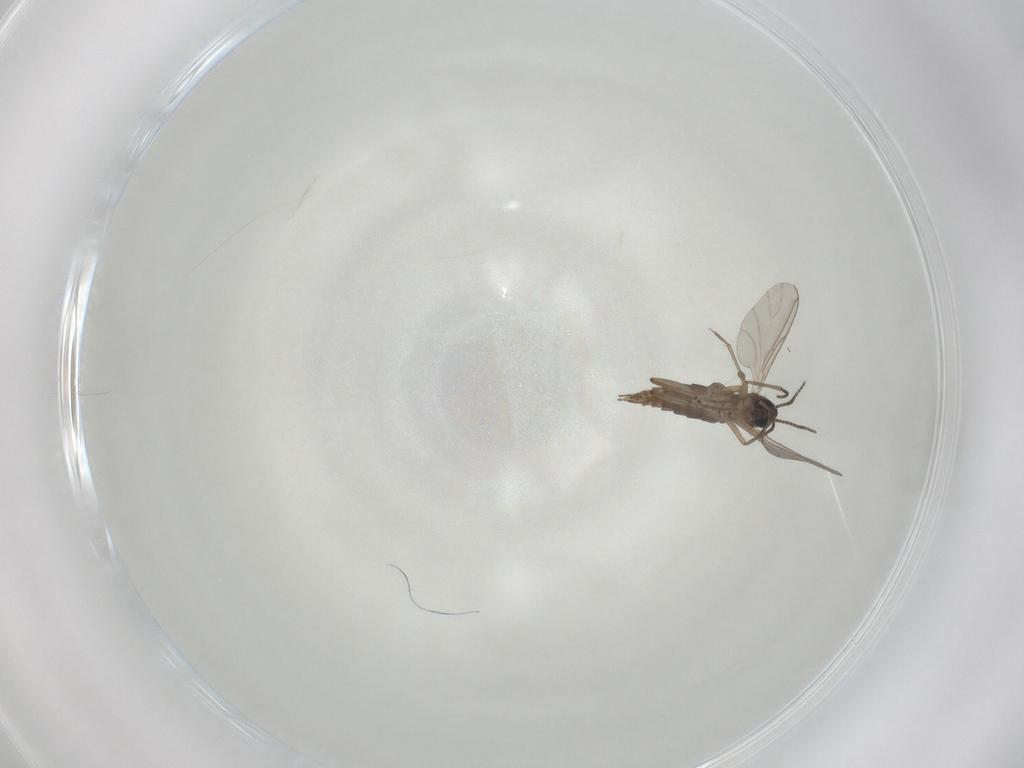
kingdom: Animalia
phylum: Arthropoda
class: Insecta
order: Diptera
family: Sciaridae
